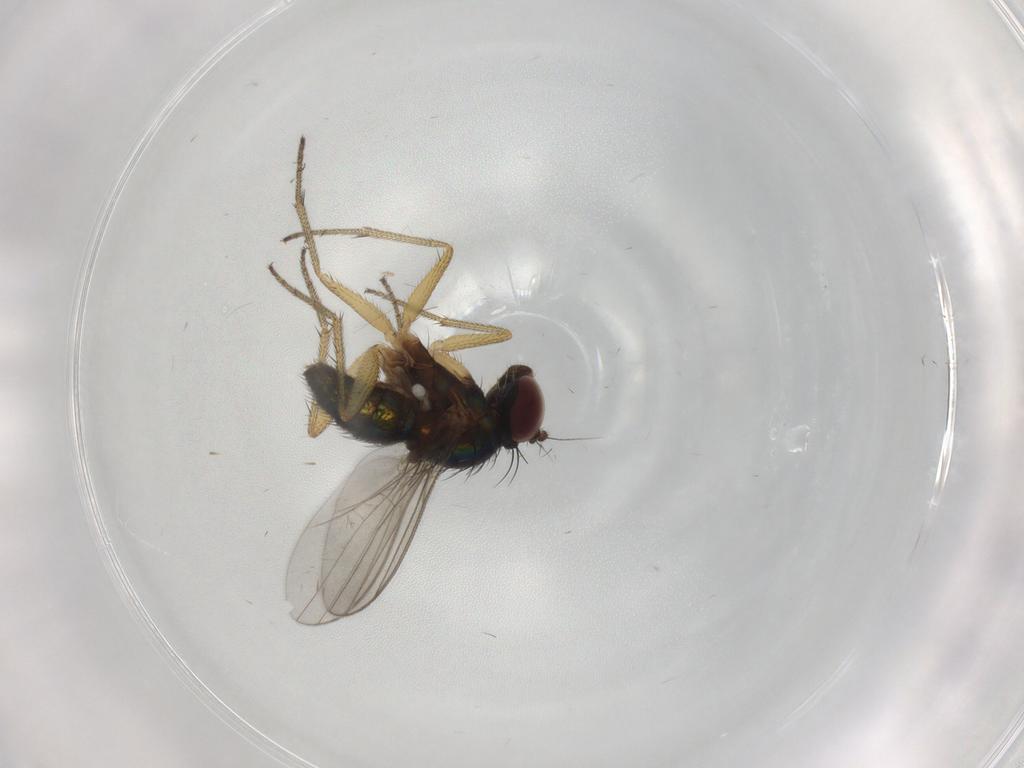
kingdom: Animalia
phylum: Arthropoda
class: Insecta
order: Diptera
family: Dolichopodidae
